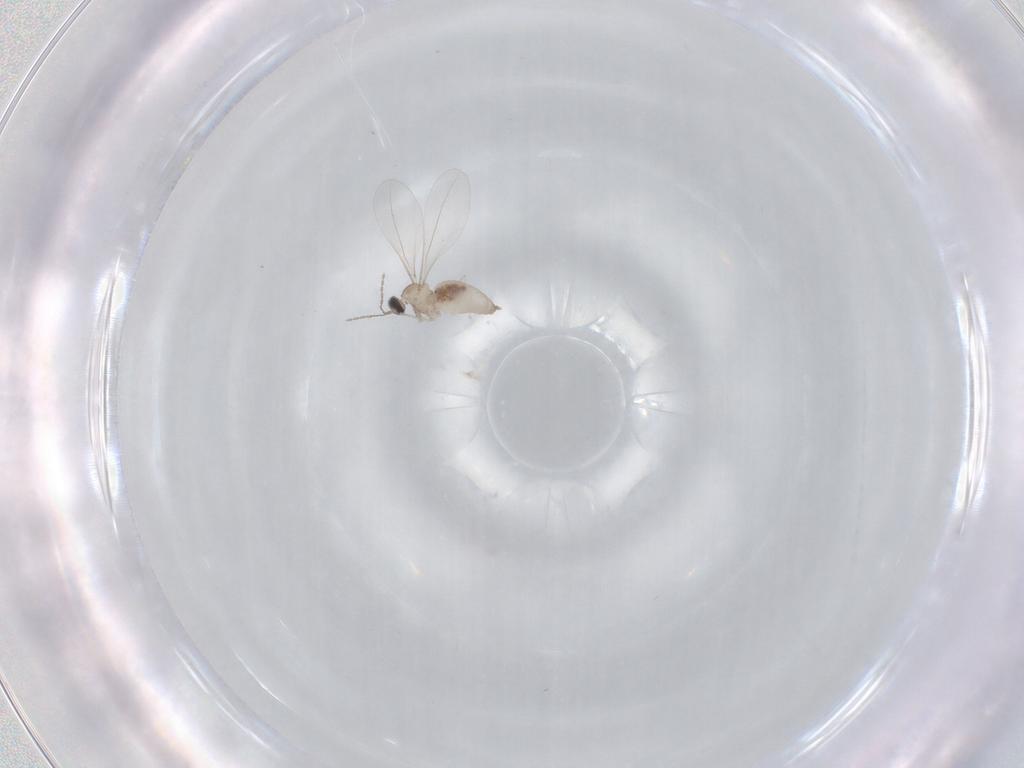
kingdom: Animalia
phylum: Arthropoda
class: Insecta
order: Diptera
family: Cecidomyiidae
